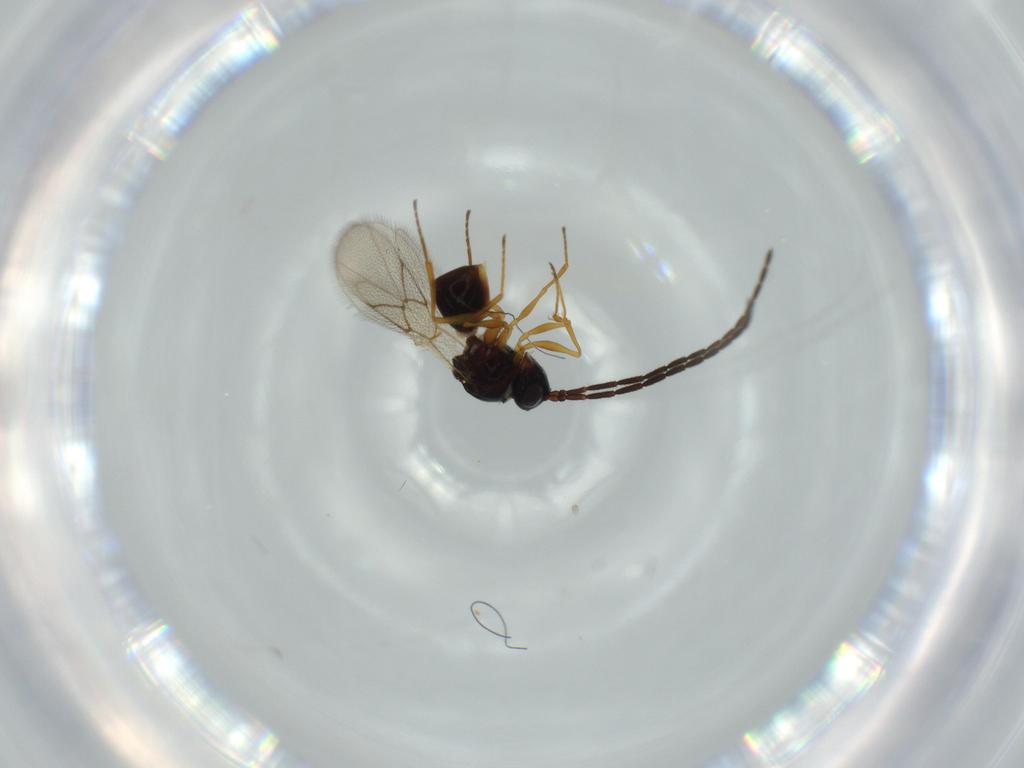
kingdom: Animalia
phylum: Arthropoda
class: Insecta
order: Hymenoptera
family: Figitidae
